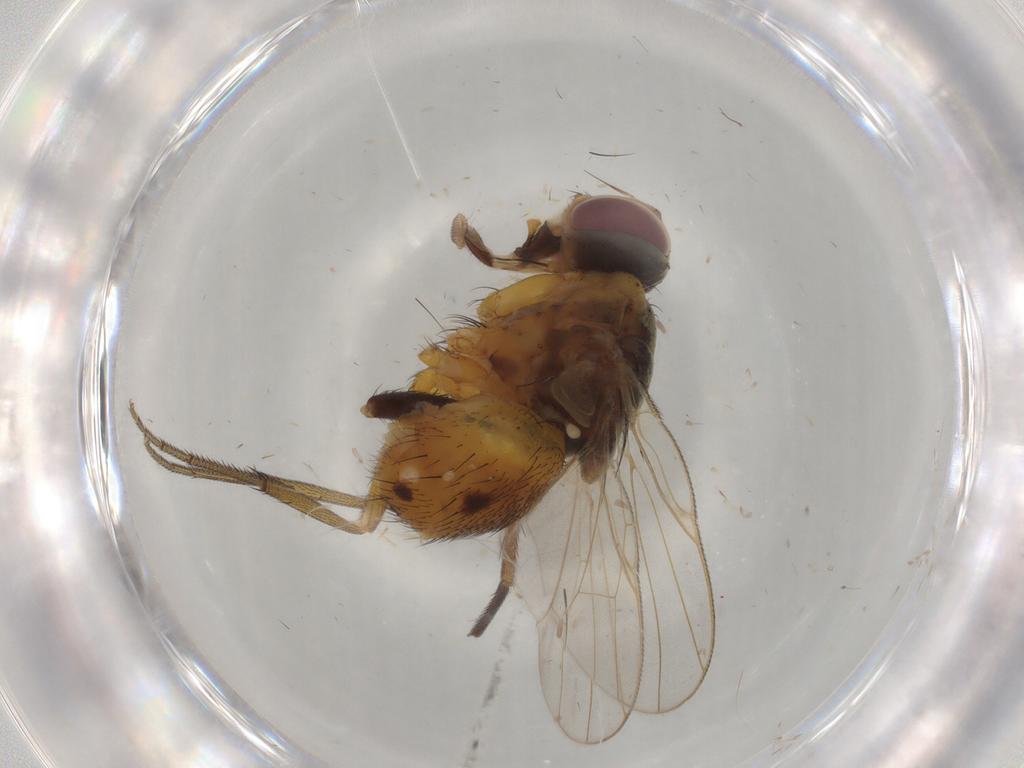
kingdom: Animalia
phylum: Arthropoda
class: Insecta
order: Diptera
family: Muscidae
